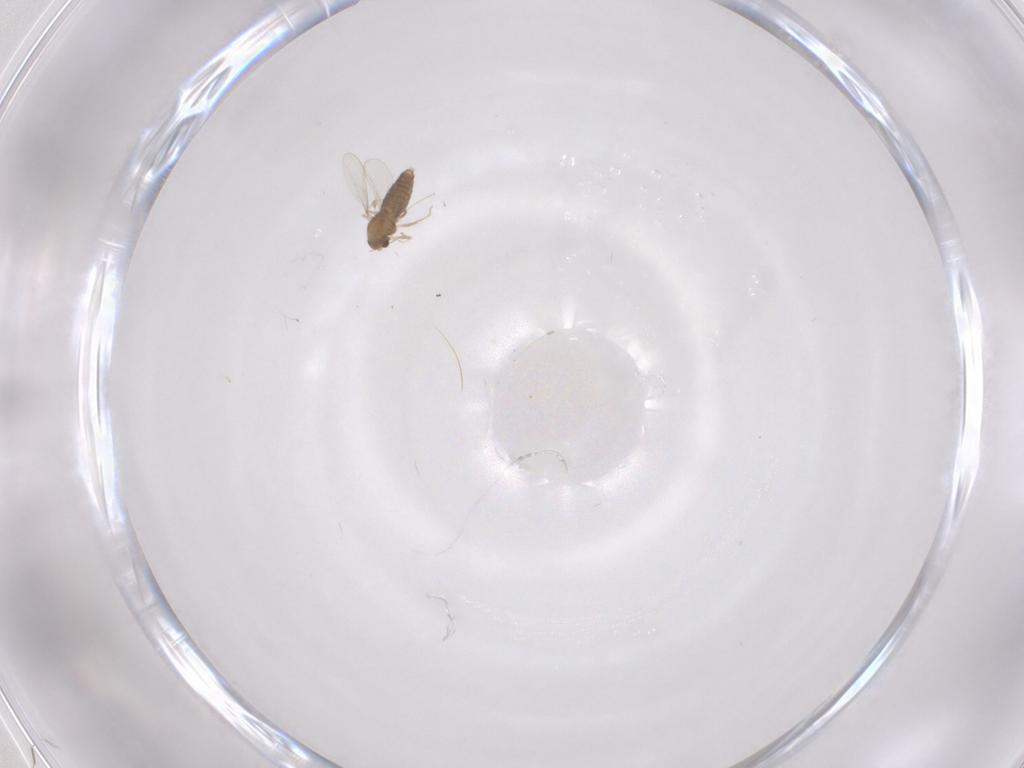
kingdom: Animalia
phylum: Arthropoda
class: Insecta
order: Diptera
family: Chironomidae
